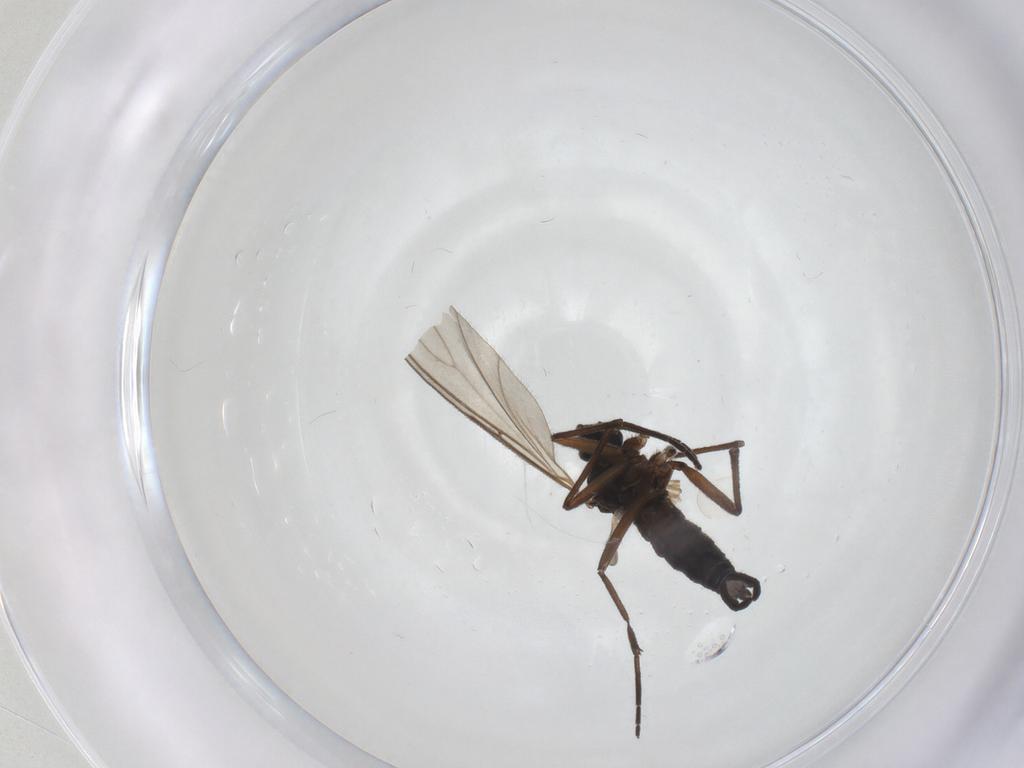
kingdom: Animalia
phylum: Arthropoda
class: Insecta
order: Diptera
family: Sciaridae
